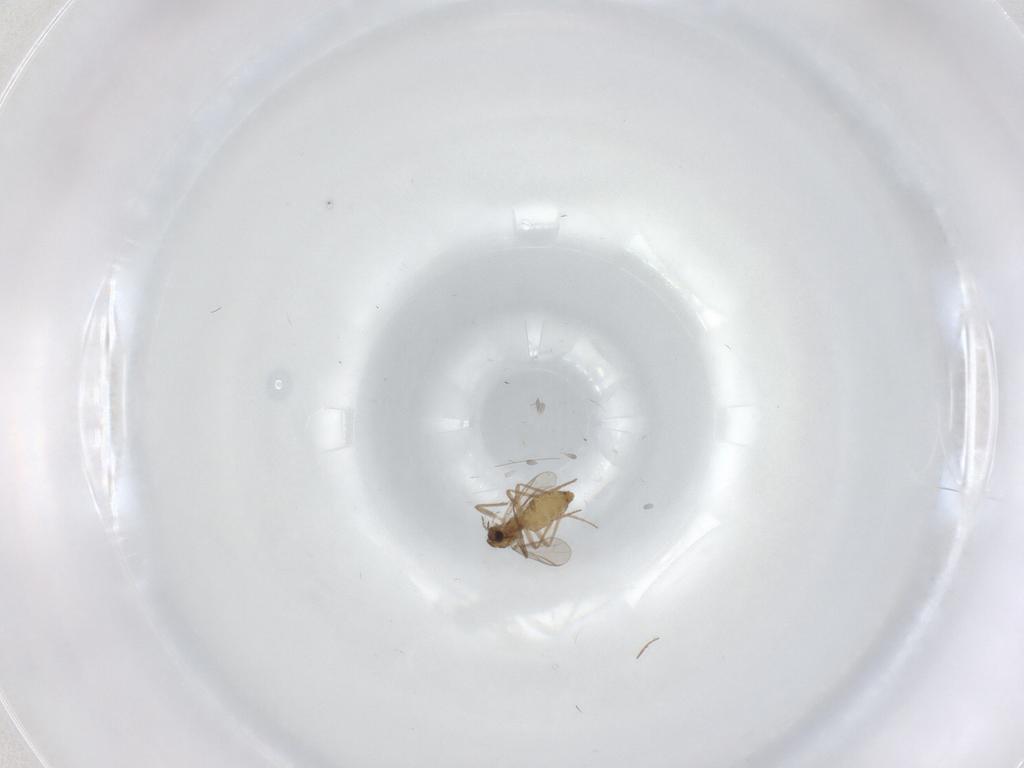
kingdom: Animalia
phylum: Arthropoda
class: Insecta
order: Diptera
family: Chironomidae
